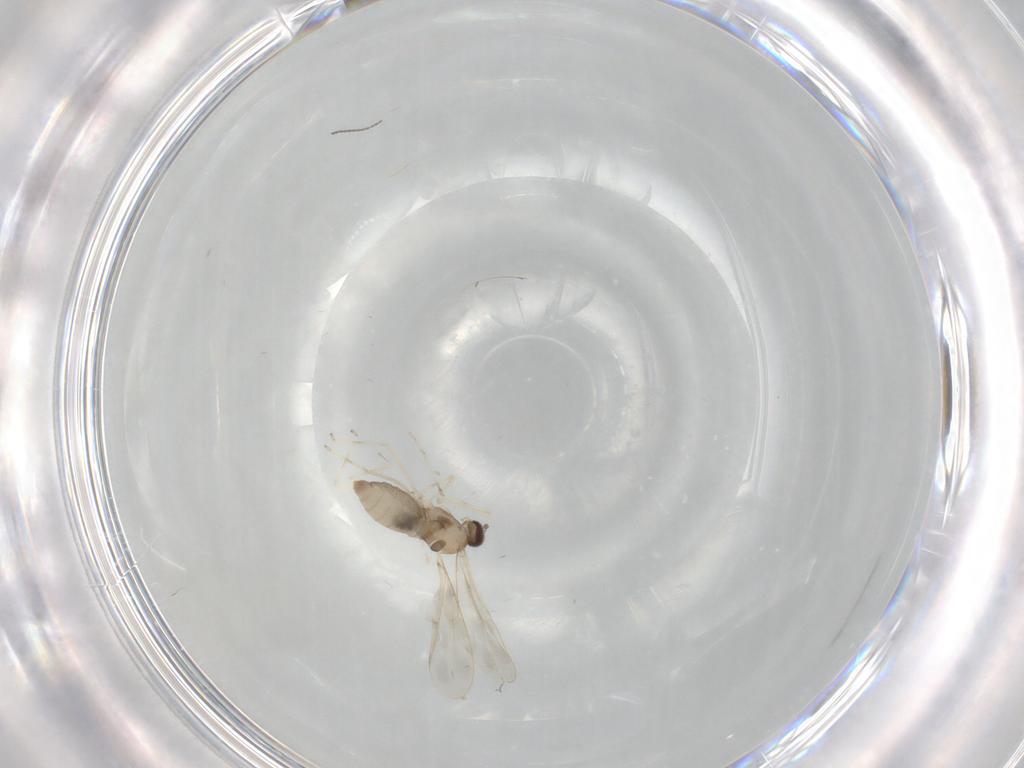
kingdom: Animalia
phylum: Arthropoda
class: Insecta
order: Diptera
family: Cecidomyiidae
